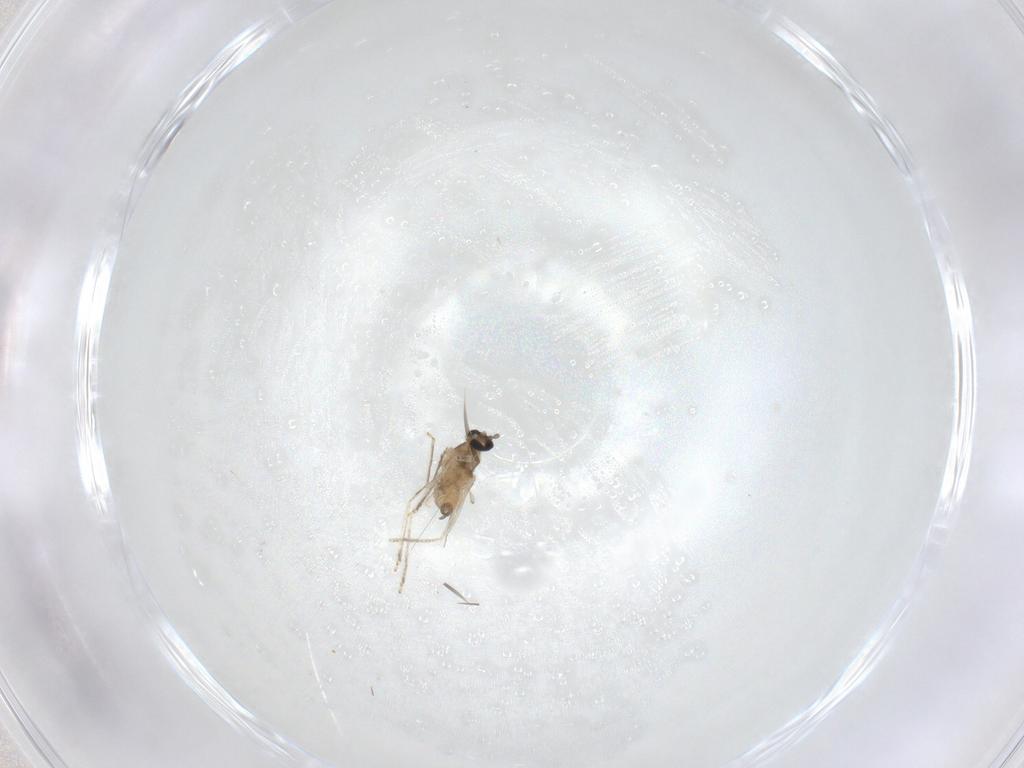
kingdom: Animalia
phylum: Arthropoda
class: Insecta
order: Diptera
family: Cecidomyiidae
